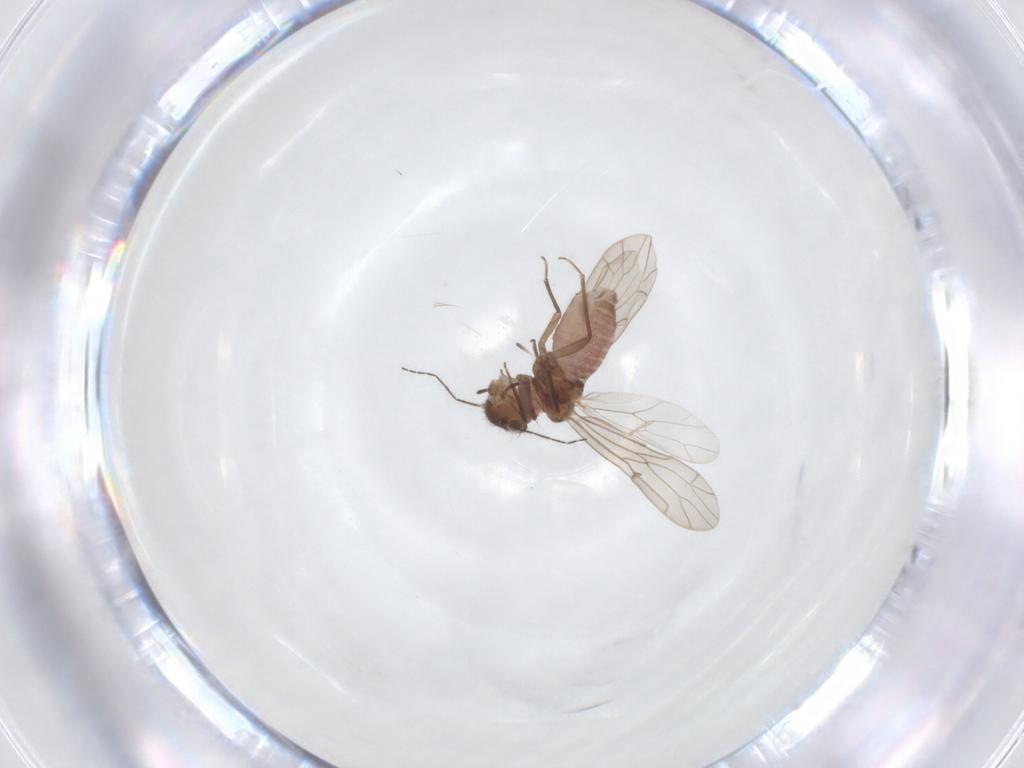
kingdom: Animalia
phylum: Arthropoda
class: Insecta
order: Psocodea
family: Ectopsocidae
